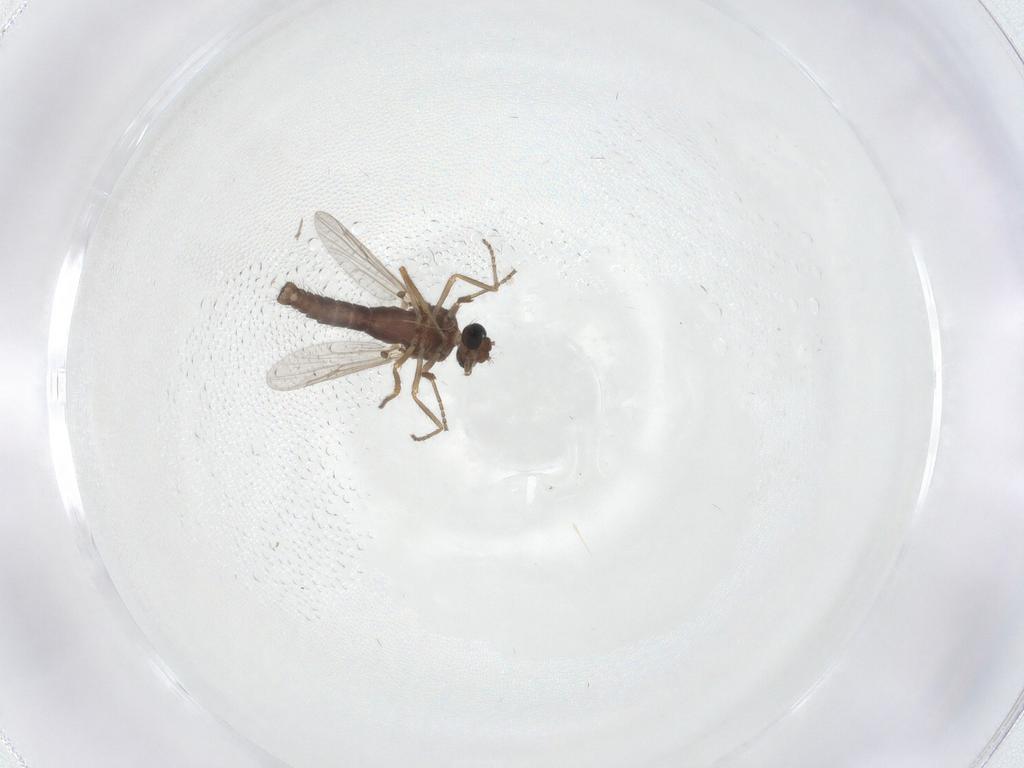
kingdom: Animalia
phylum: Arthropoda
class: Insecta
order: Diptera
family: Ceratopogonidae
